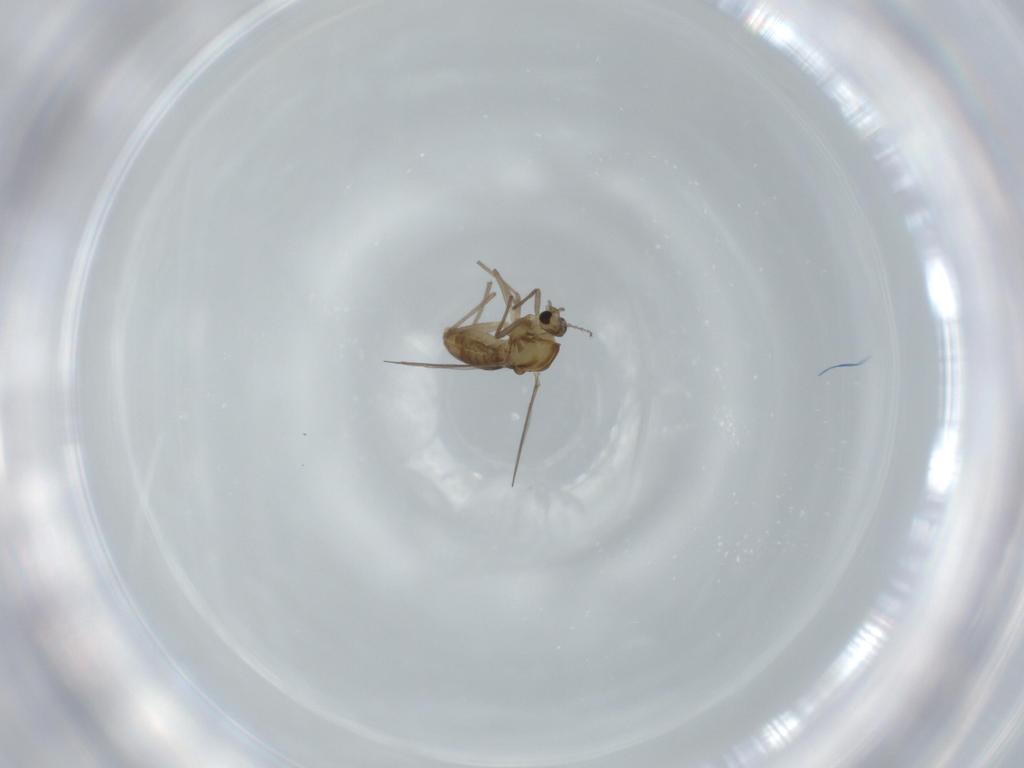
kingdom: Animalia
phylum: Arthropoda
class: Insecta
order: Diptera
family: Chironomidae
